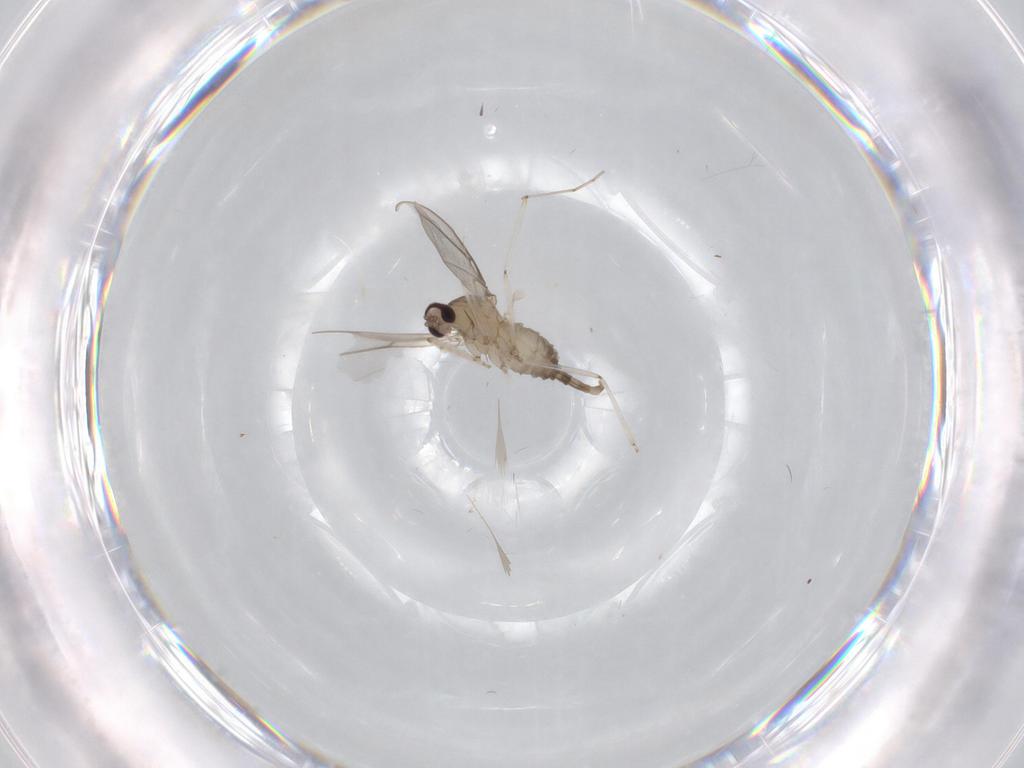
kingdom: Animalia
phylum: Arthropoda
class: Insecta
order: Diptera
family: Cecidomyiidae
